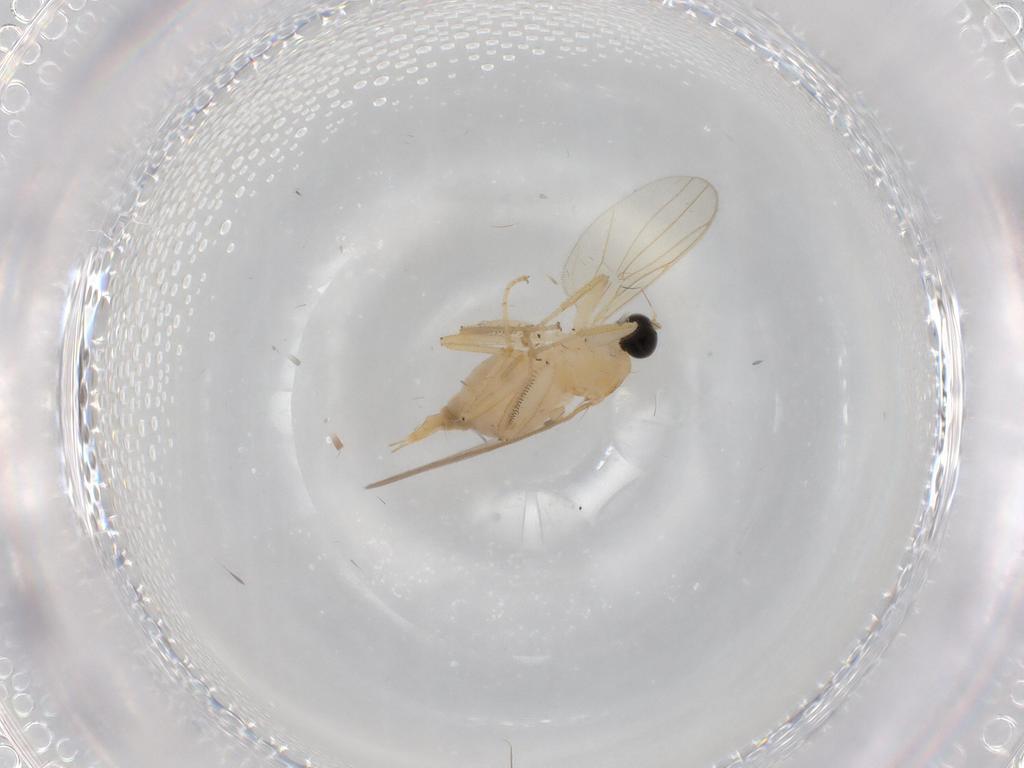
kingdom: Animalia
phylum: Arthropoda
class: Insecta
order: Diptera
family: Hybotidae
